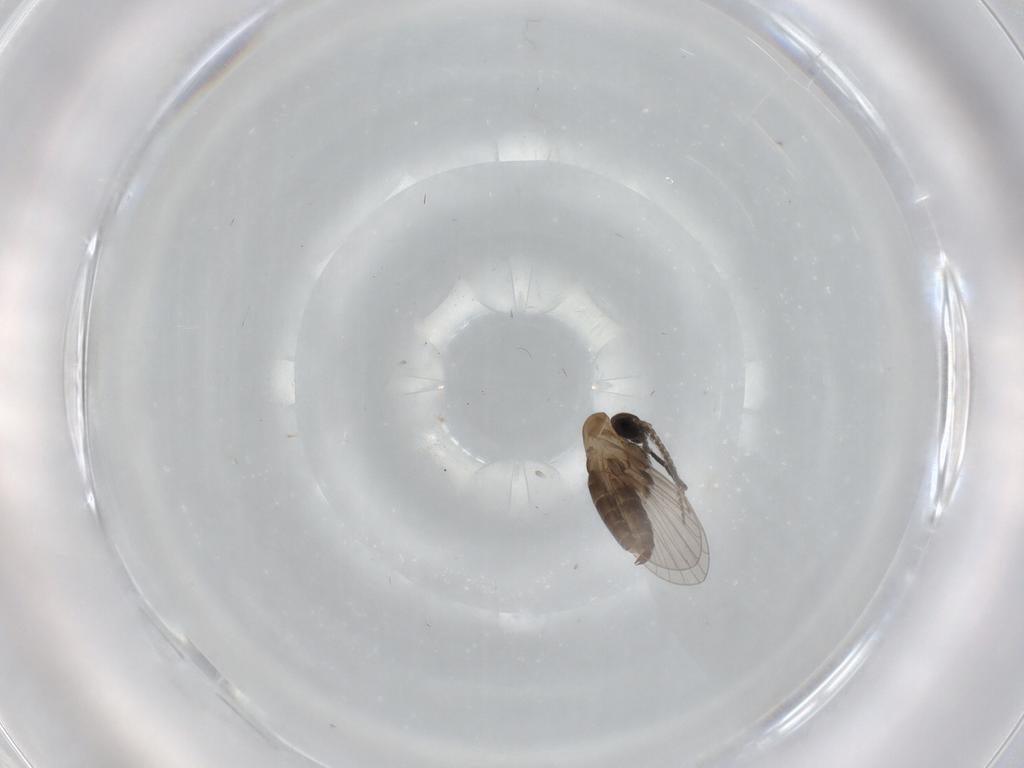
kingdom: Animalia
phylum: Arthropoda
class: Insecta
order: Diptera
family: Psychodidae
